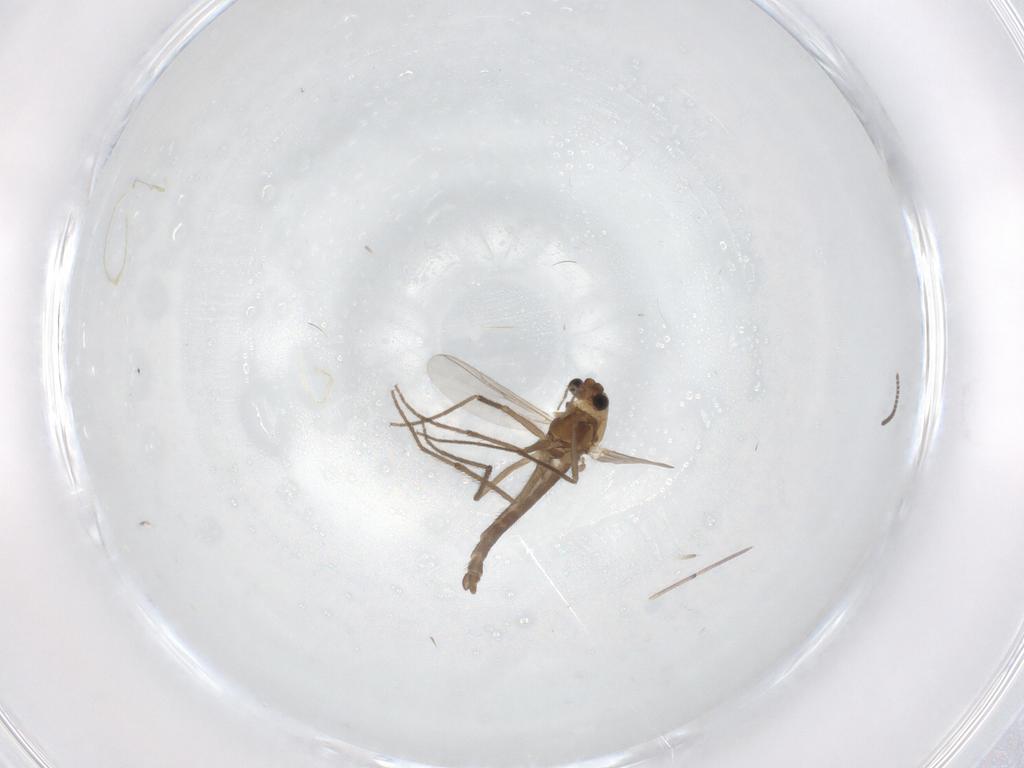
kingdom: Animalia
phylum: Arthropoda
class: Insecta
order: Diptera
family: Chironomidae
